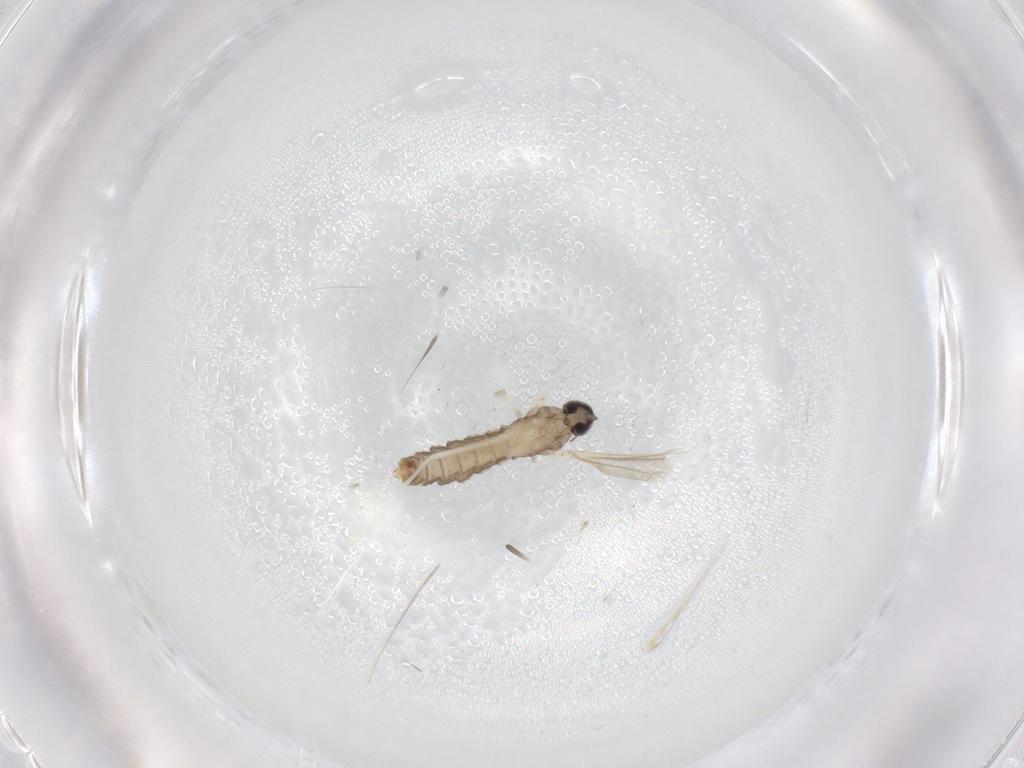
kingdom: Animalia
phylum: Arthropoda
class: Insecta
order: Diptera
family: Cecidomyiidae
